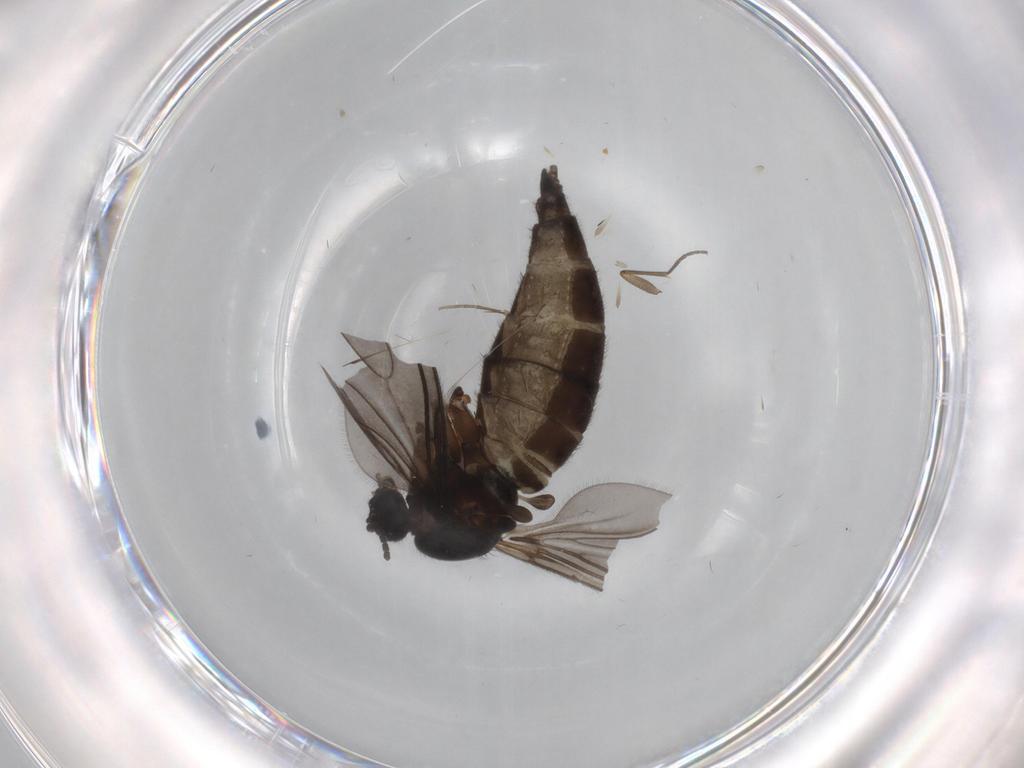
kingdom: Animalia
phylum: Arthropoda
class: Insecta
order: Diptera
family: Sciaridae
